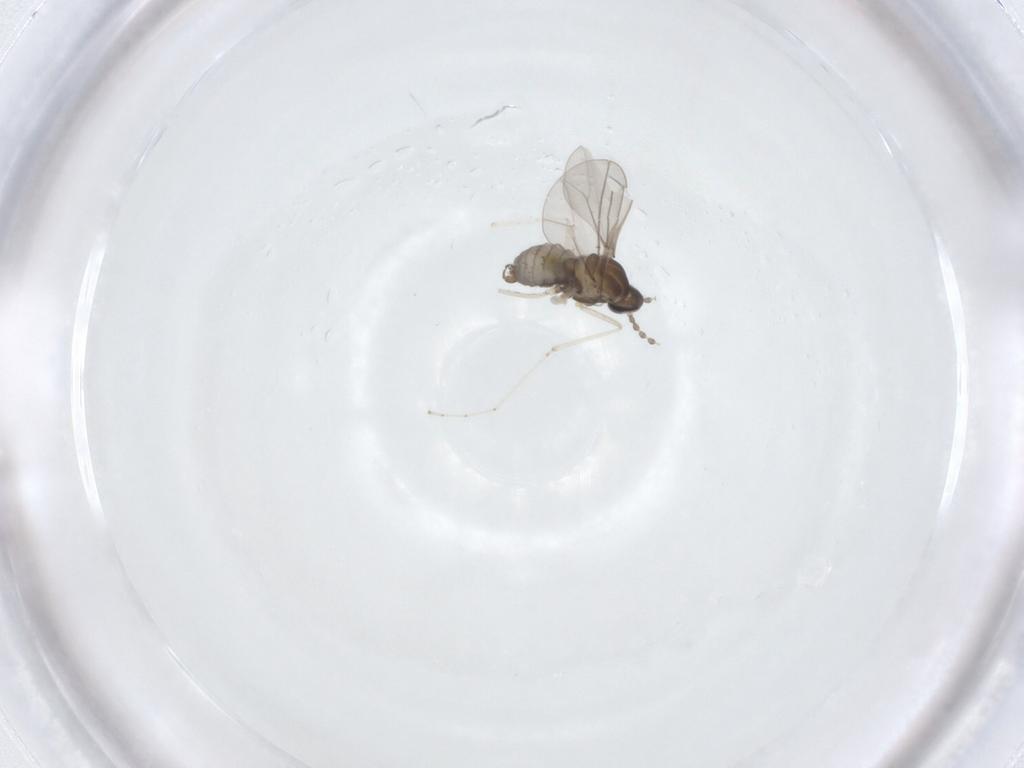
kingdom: Animalia
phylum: Arthropoda
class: Insecta
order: Diptera
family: Cecidomyiidae
